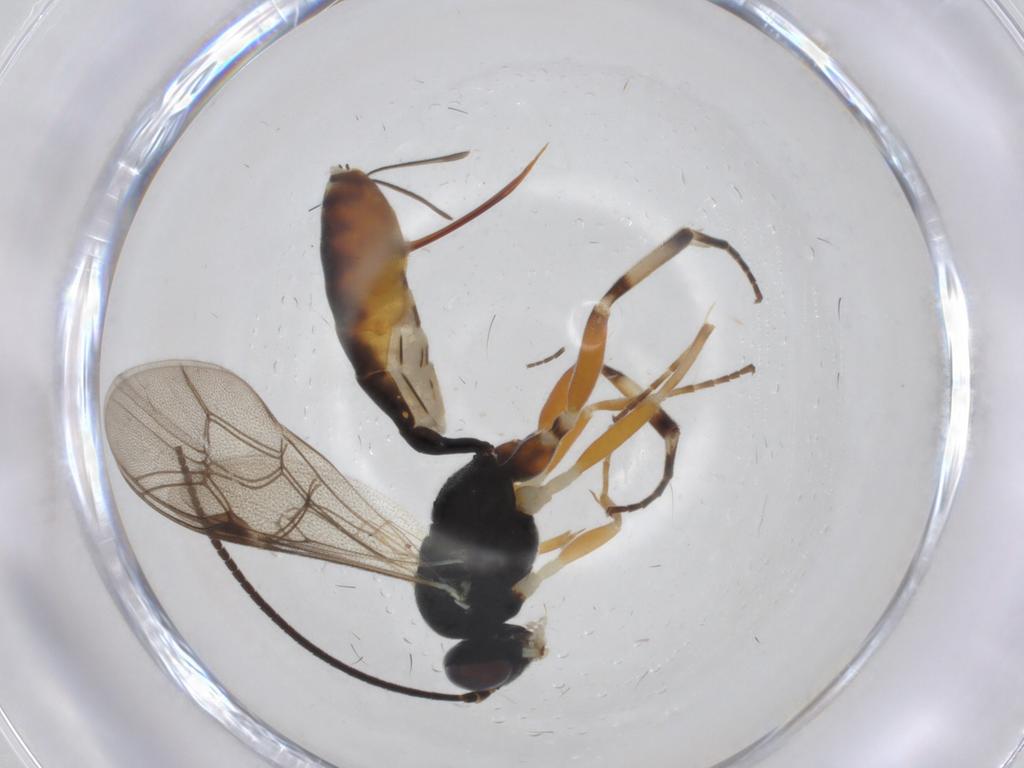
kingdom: Animalia
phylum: Arthropoda
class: Insecta
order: Hymenoptera
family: Ichneumonidae
